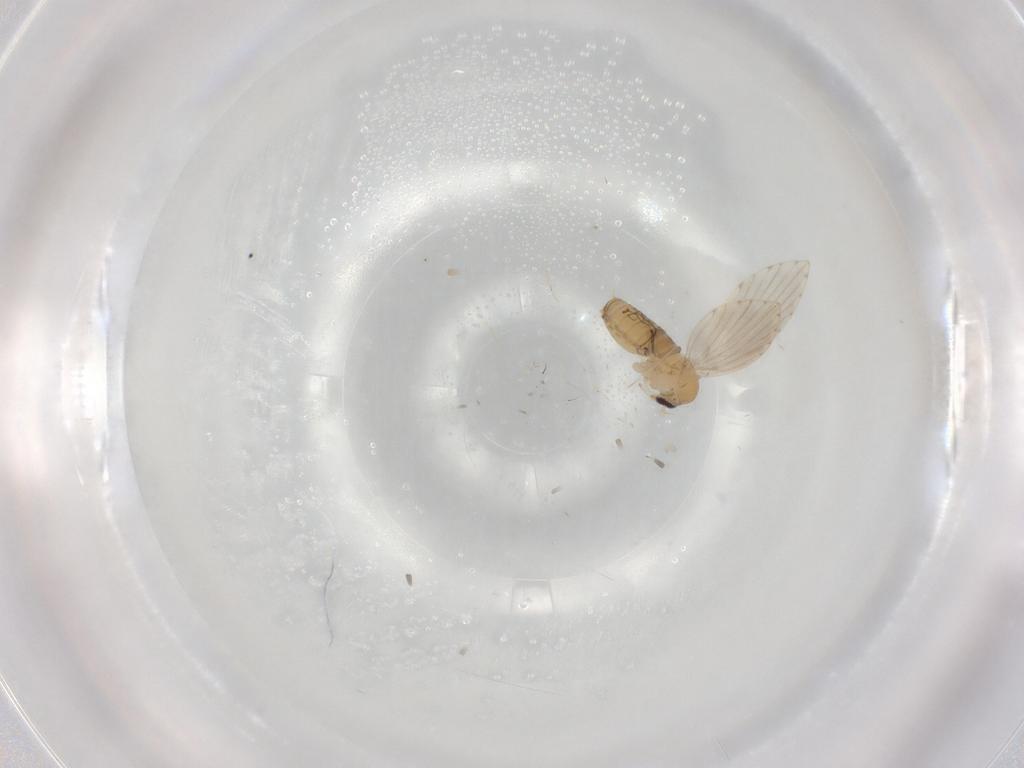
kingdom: Animalia
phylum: Arthropoda
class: Insecta
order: Diptera
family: Psychodidae
